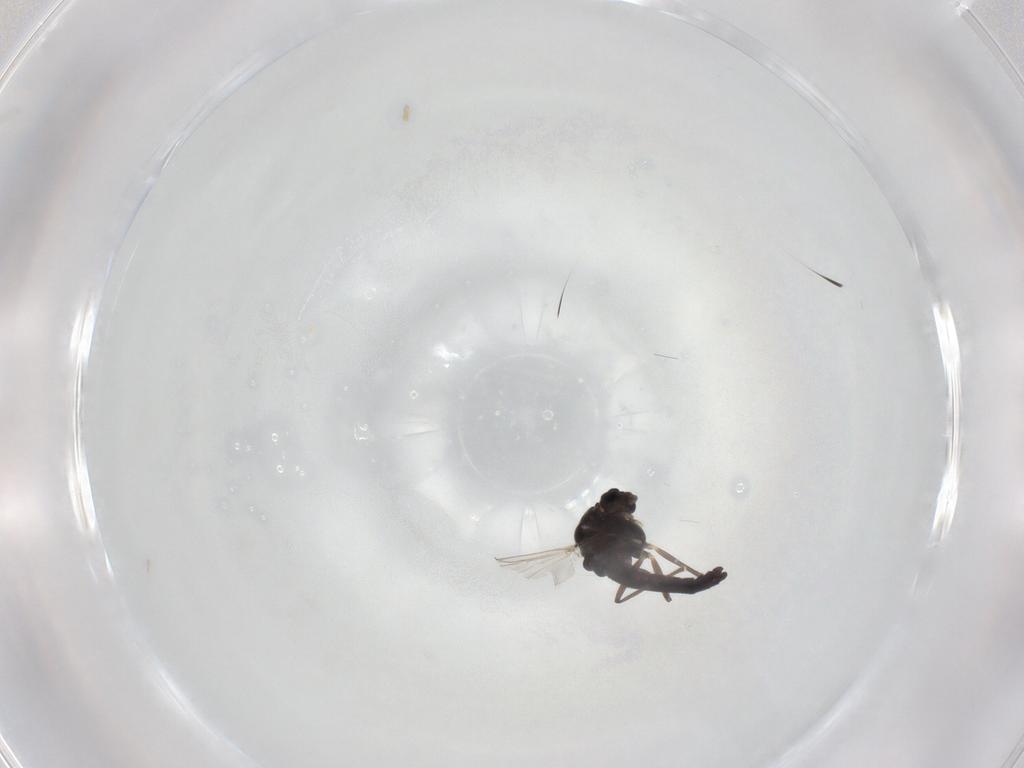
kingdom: Animalia
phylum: Arthropoda
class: Insecta
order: Diptera
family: Chironomidae
